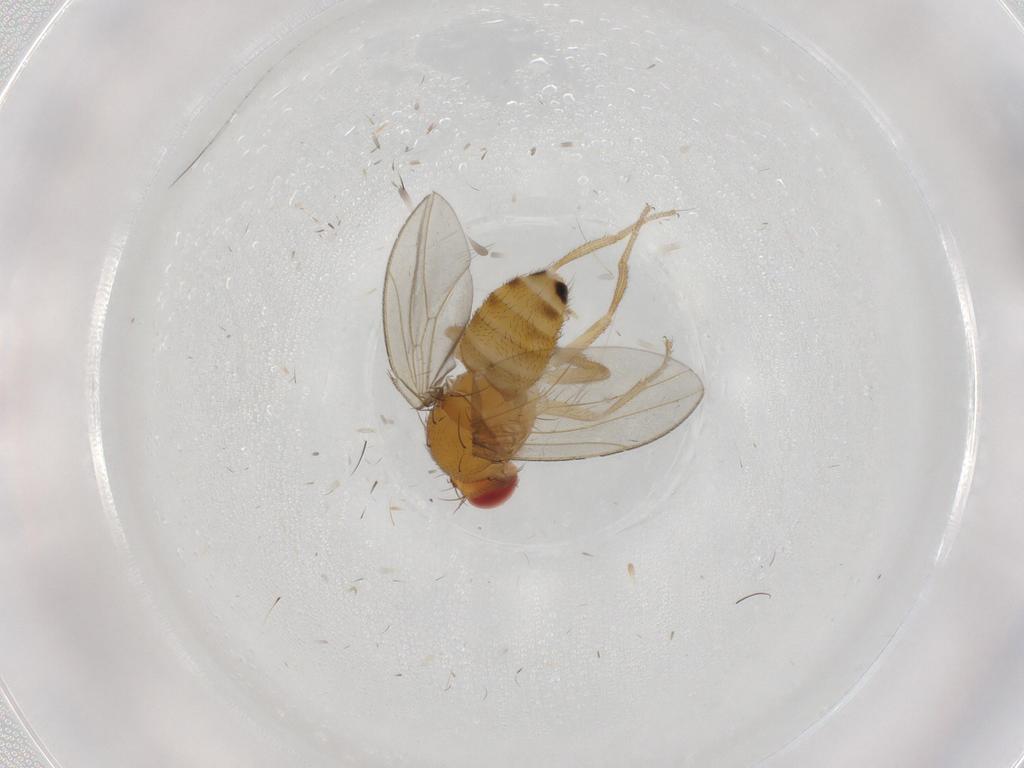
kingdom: Animalia
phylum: Arthropoda
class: Insecta
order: Diptera
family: Drosophilidae
